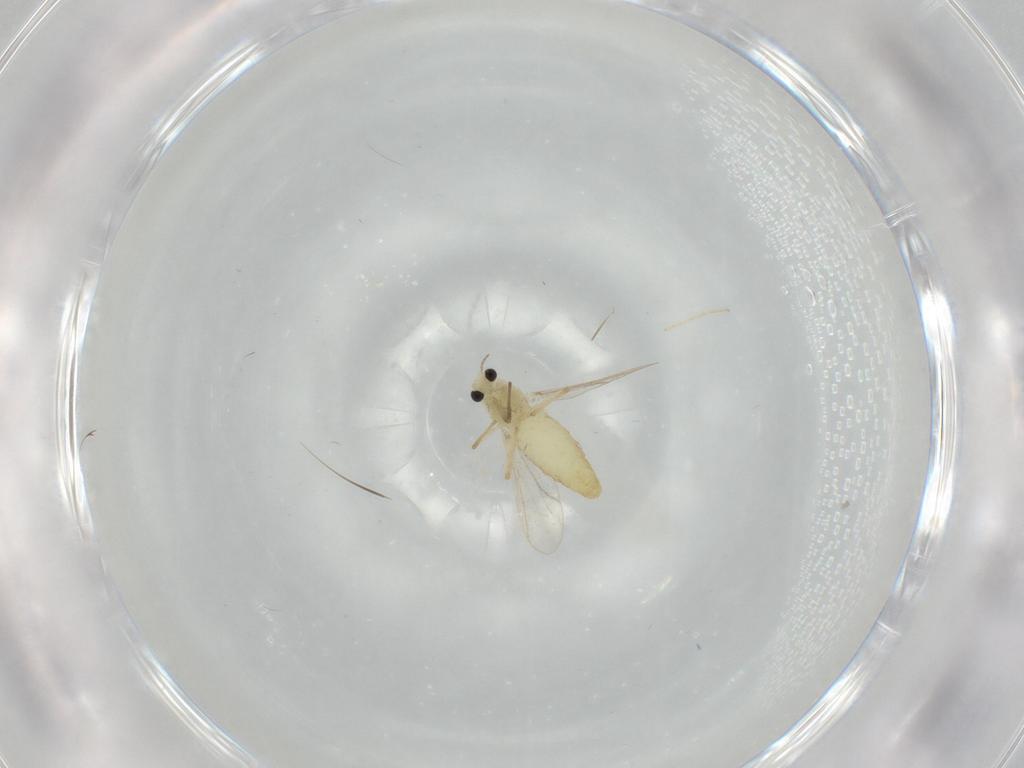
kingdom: Animalia
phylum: Arthropoda
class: Insecta
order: Diptera
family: Chironomidae
